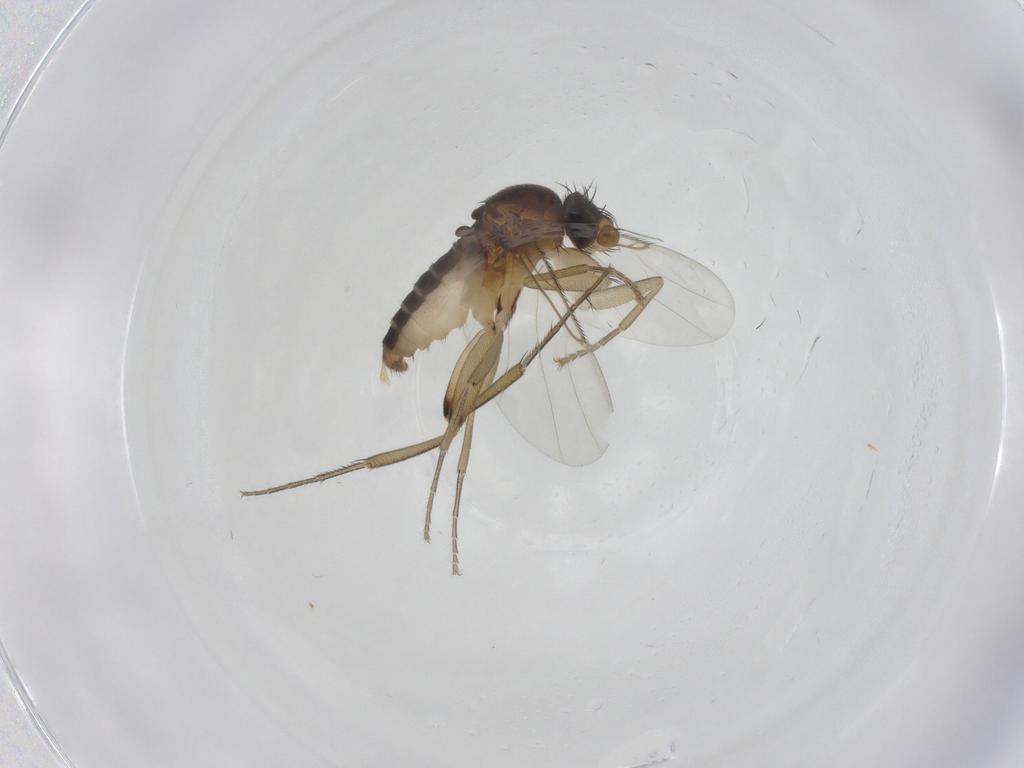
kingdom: Animalia
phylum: Arthropoda
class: Insecta
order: Diptera
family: Phoridae
